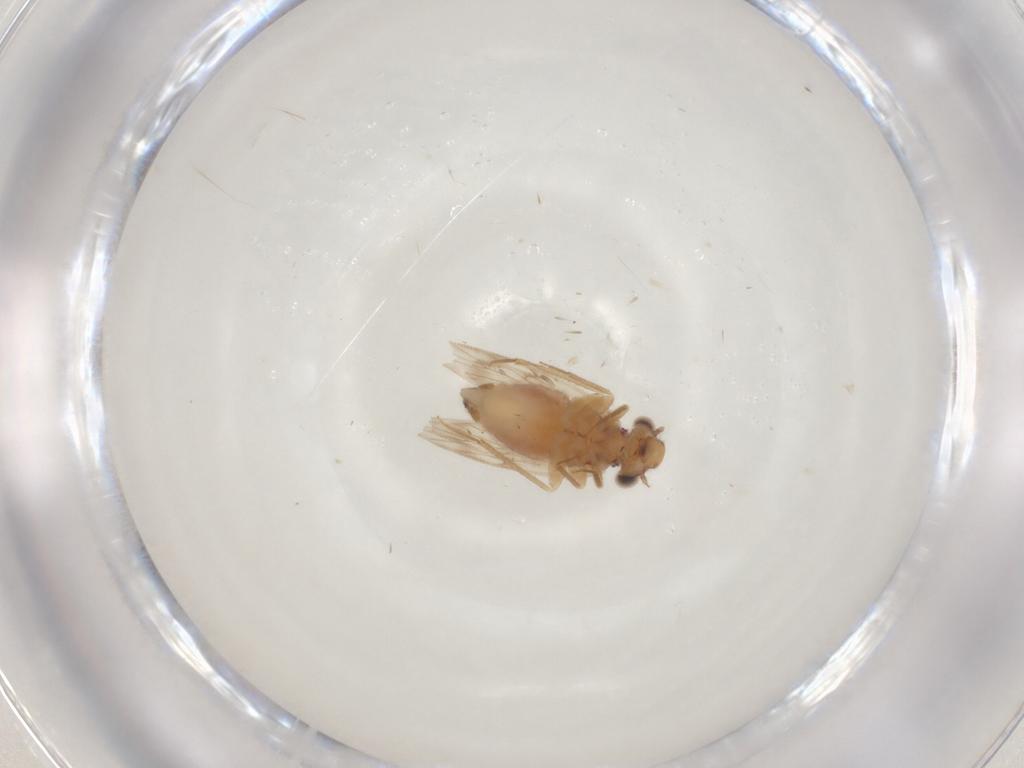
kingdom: Animalia
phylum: Arthropoda
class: Insecta
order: Psocodea
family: Lepidopsocidae
